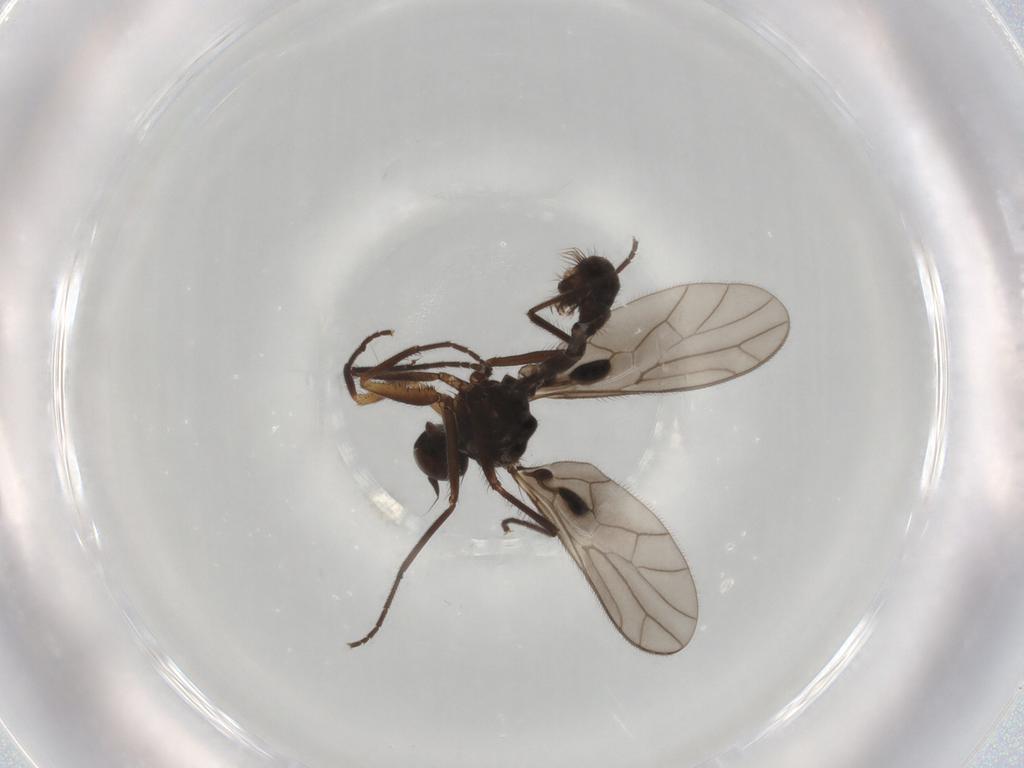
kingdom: Animalia
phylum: Arthropoda
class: Insecta
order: Diptera
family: Empididae
